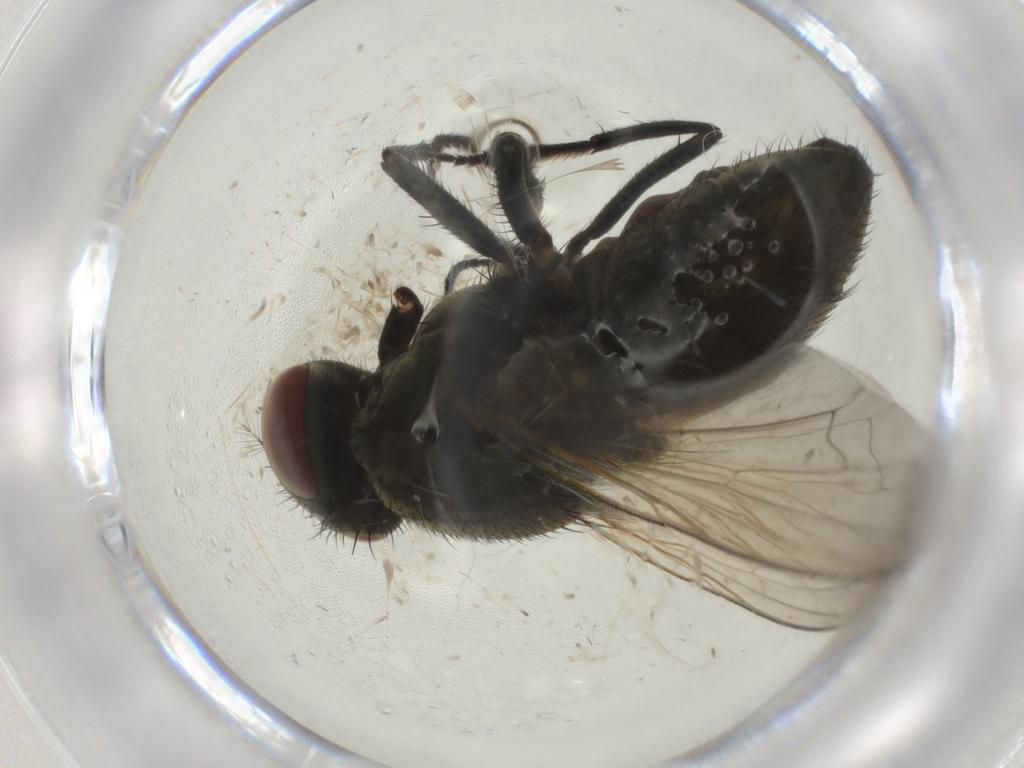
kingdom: Animalia
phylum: Arthropoda
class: Insecta
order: Diptera
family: Muscidae
